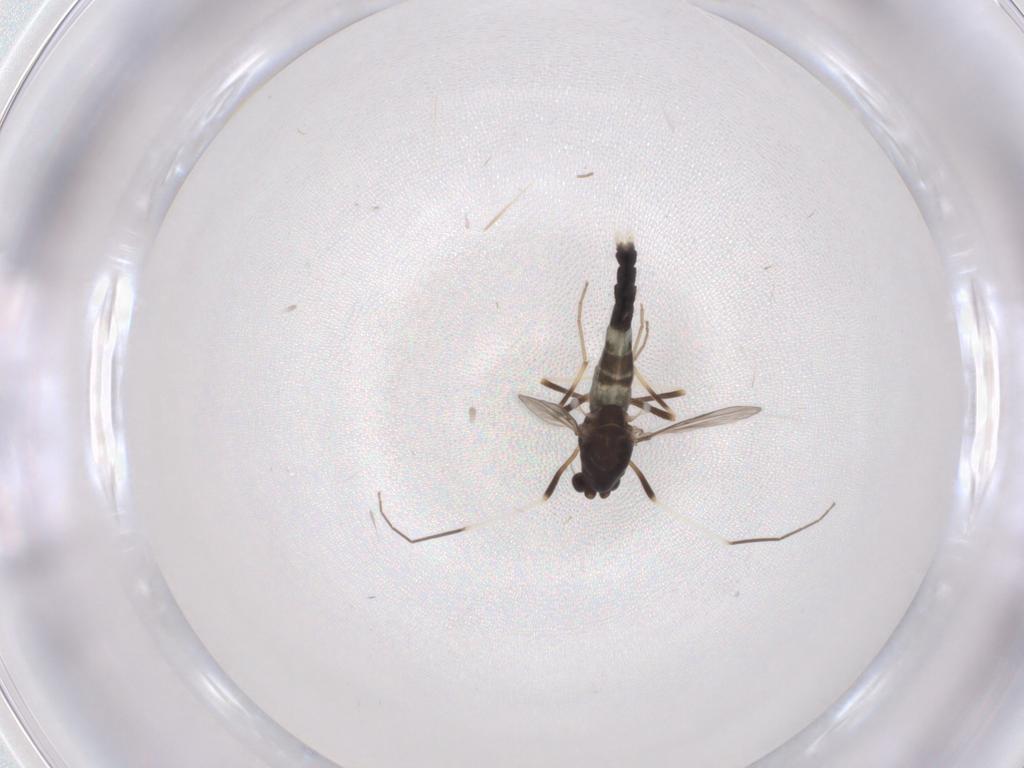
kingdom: Animalia
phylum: Arthropoda
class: Insecta
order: Diptera
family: Chironomidae
